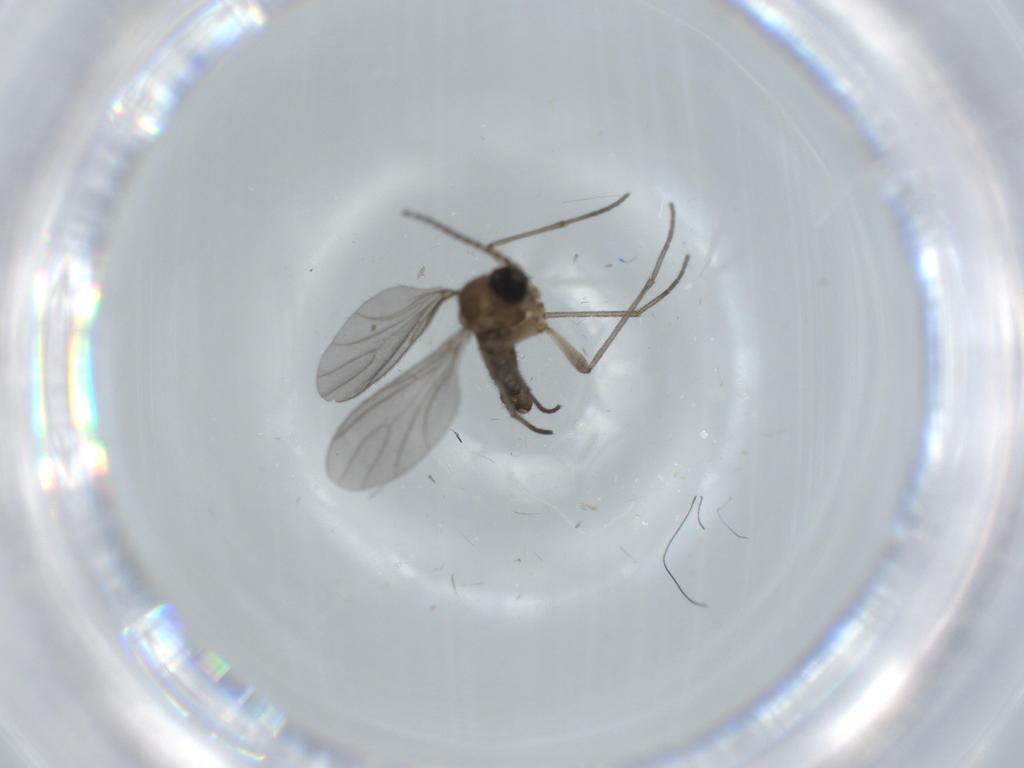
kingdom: Animalia
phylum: Arthropoda
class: Insecta
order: Diptera
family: Sciaridae
